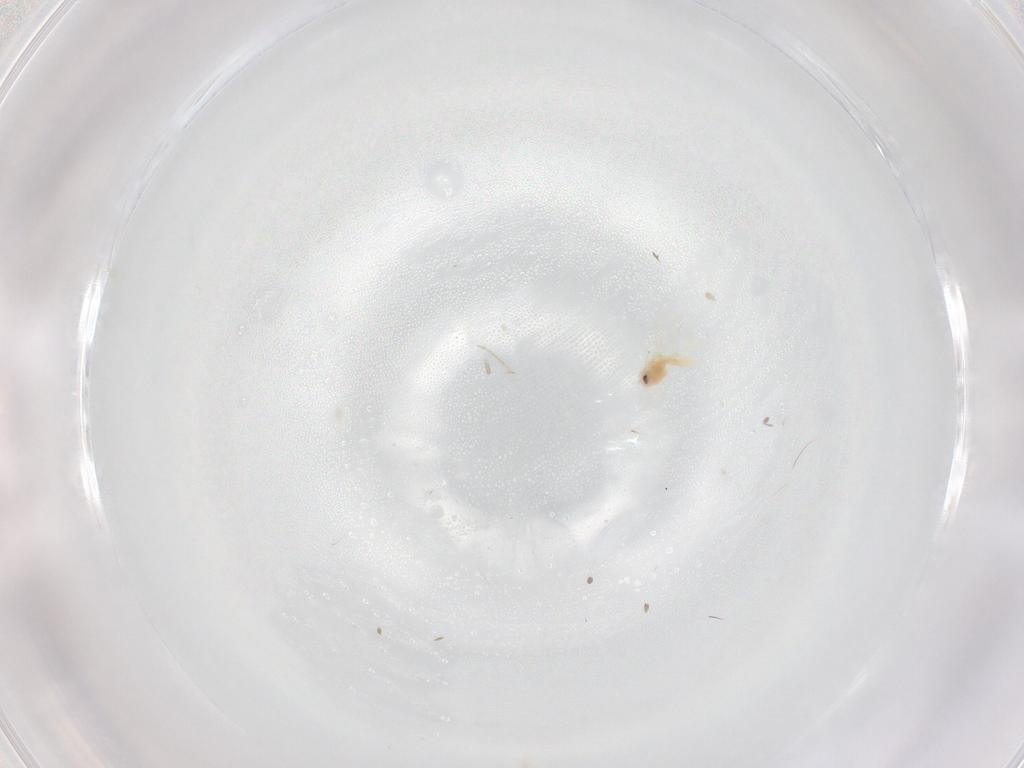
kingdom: Animalia
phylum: Arthropoda
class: Insecta
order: Hemiptera
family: Aleyrodidae
